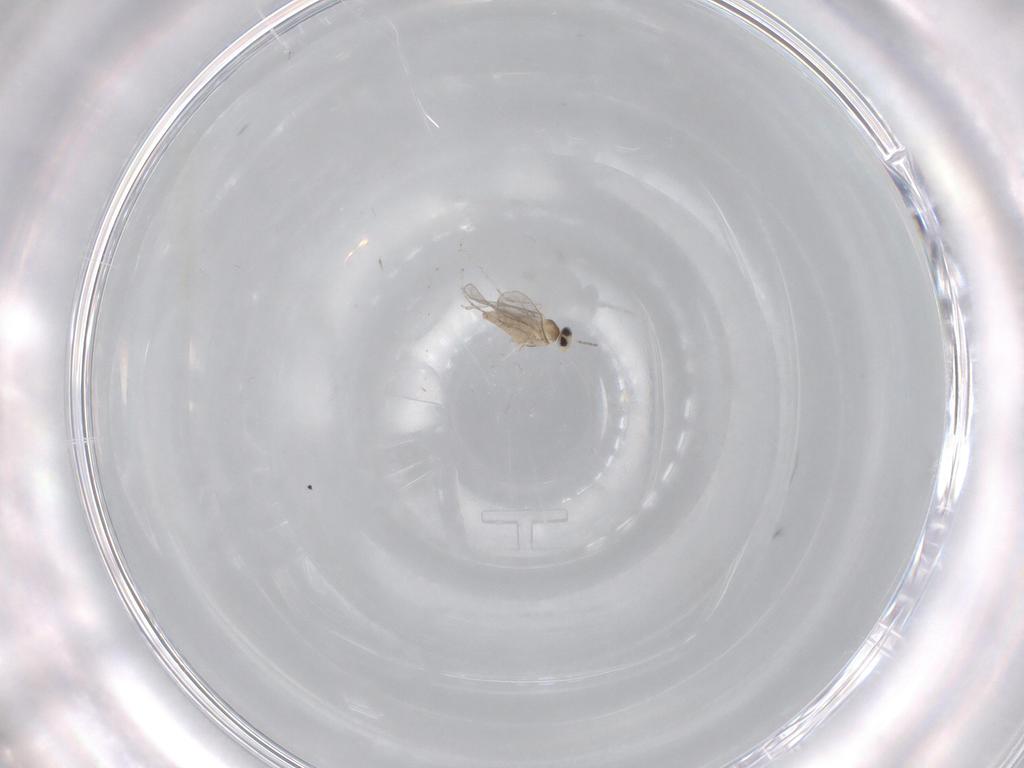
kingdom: Animalia
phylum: Arthropoda
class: Insecta
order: Diptera
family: Cecidomyiidae
